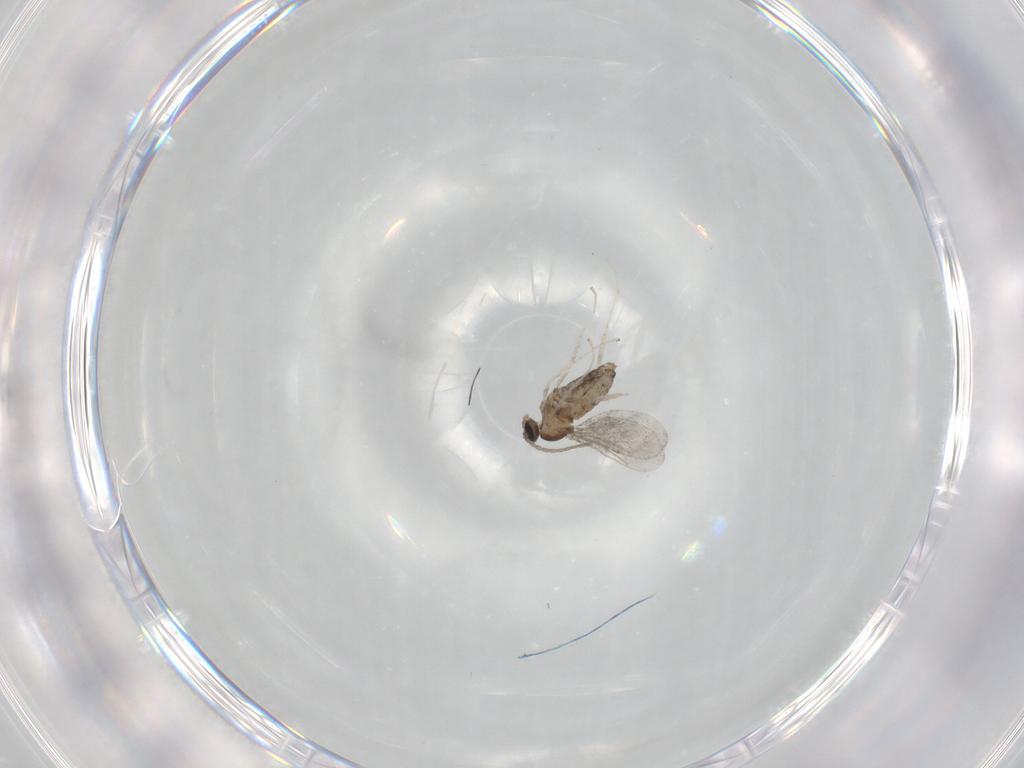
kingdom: Animalia
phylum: Arthropoda
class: Insecta
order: Diptera
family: Cecidomyiidae
